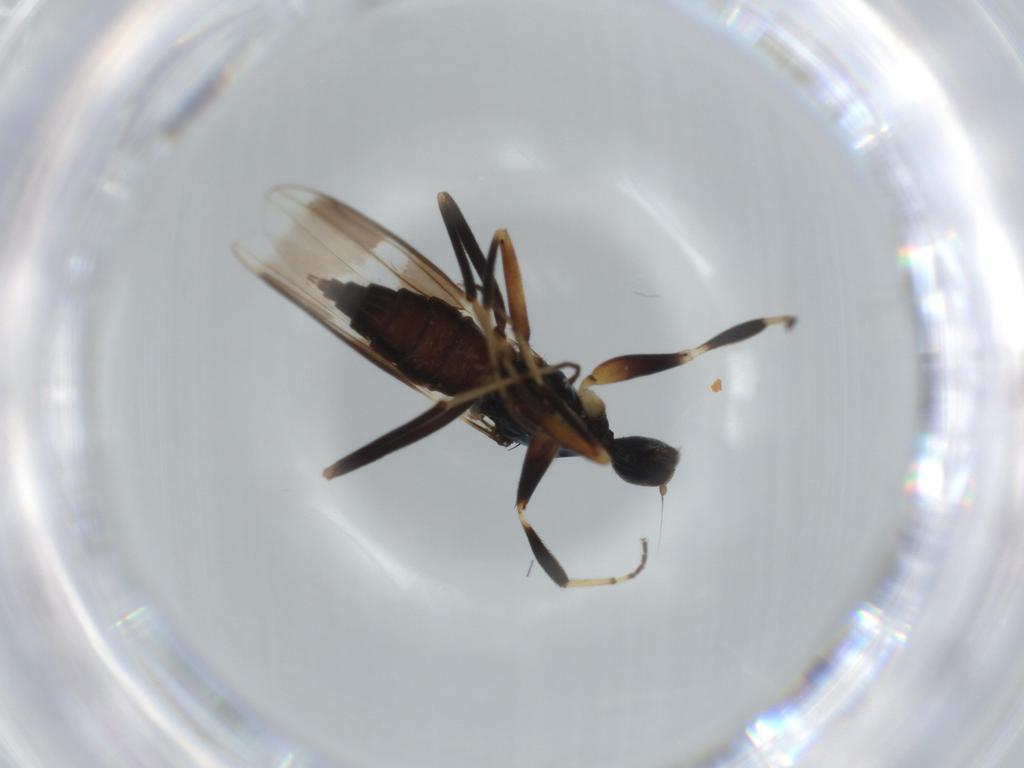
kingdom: Animalia
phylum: Arthropoda
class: Insecta
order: Diptera
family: Hybotidae
